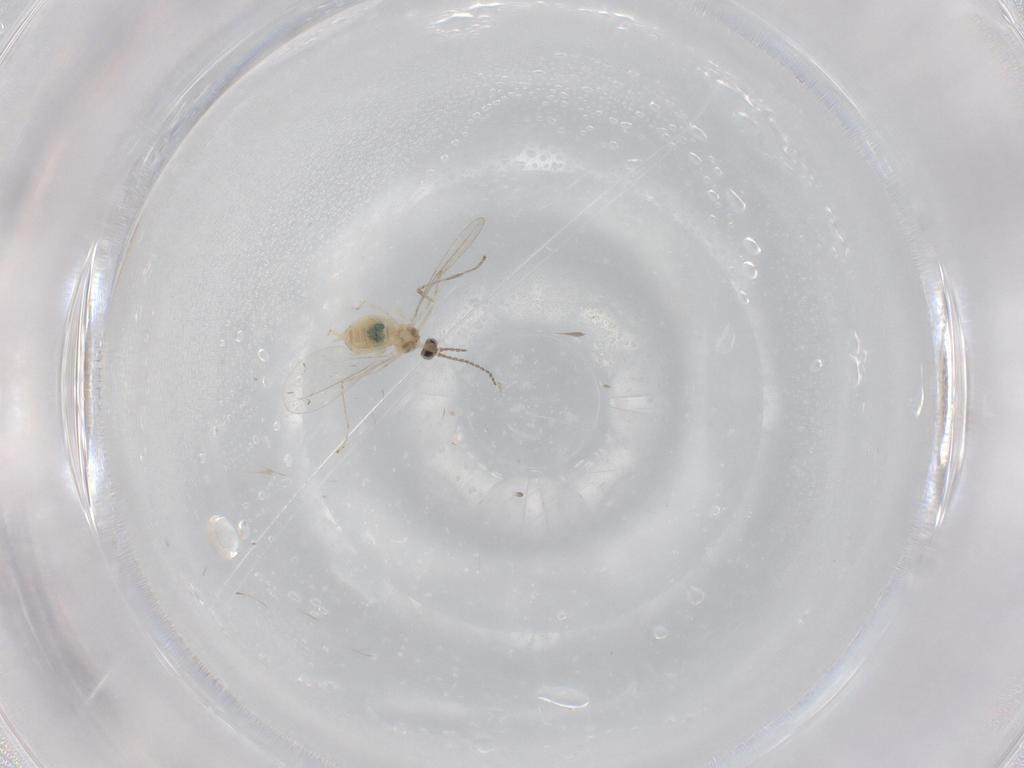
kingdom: Animalia
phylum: Arthropoda
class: Insecta
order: Diptera
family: Cecidomyiidae
